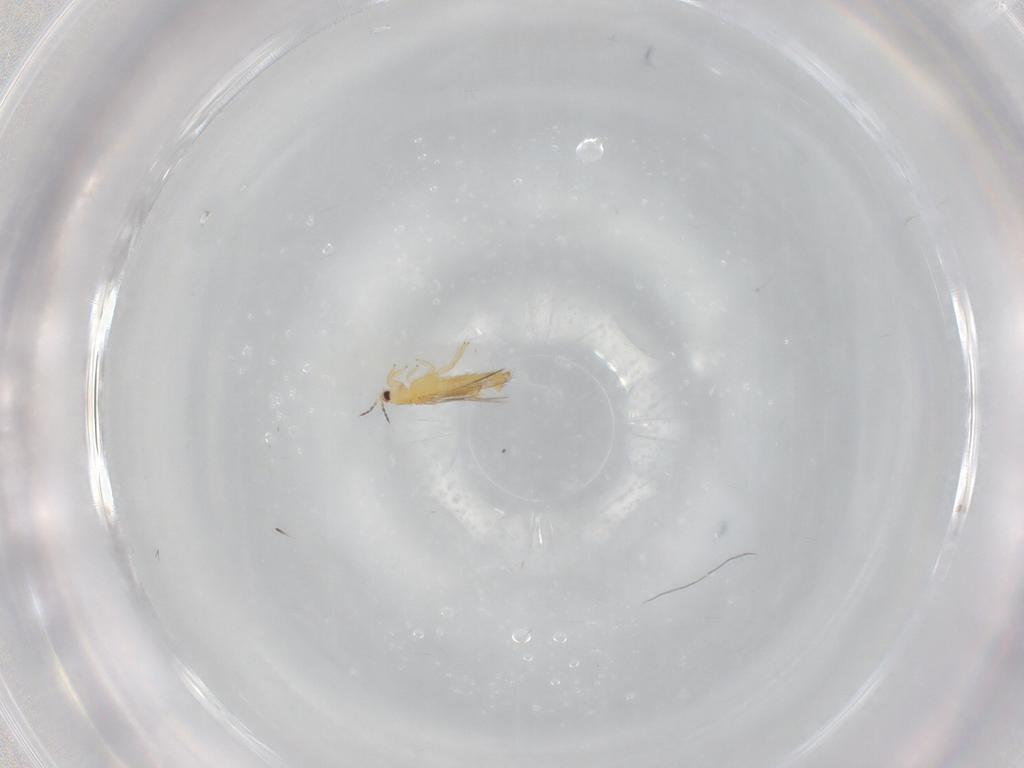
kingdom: Animalia
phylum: Arthropoda
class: Insecta
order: Thysanoptera
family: Thripidae
